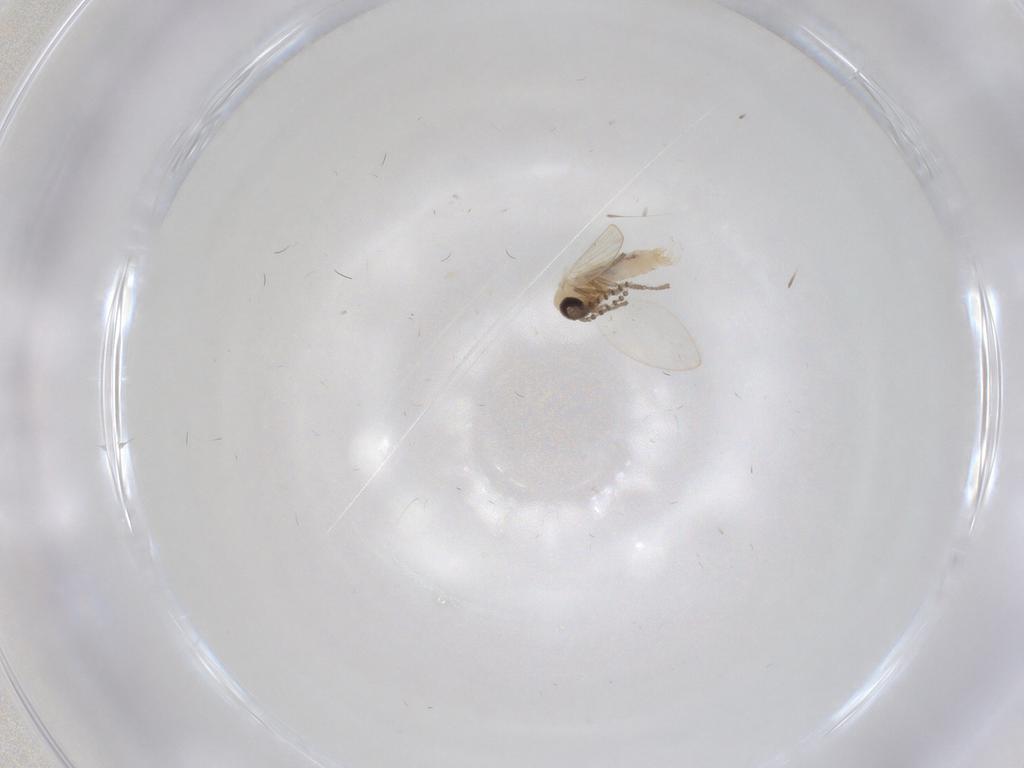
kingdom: Animalia
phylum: Arthropoda
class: Insecta
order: Diptera
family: Psychodidae
